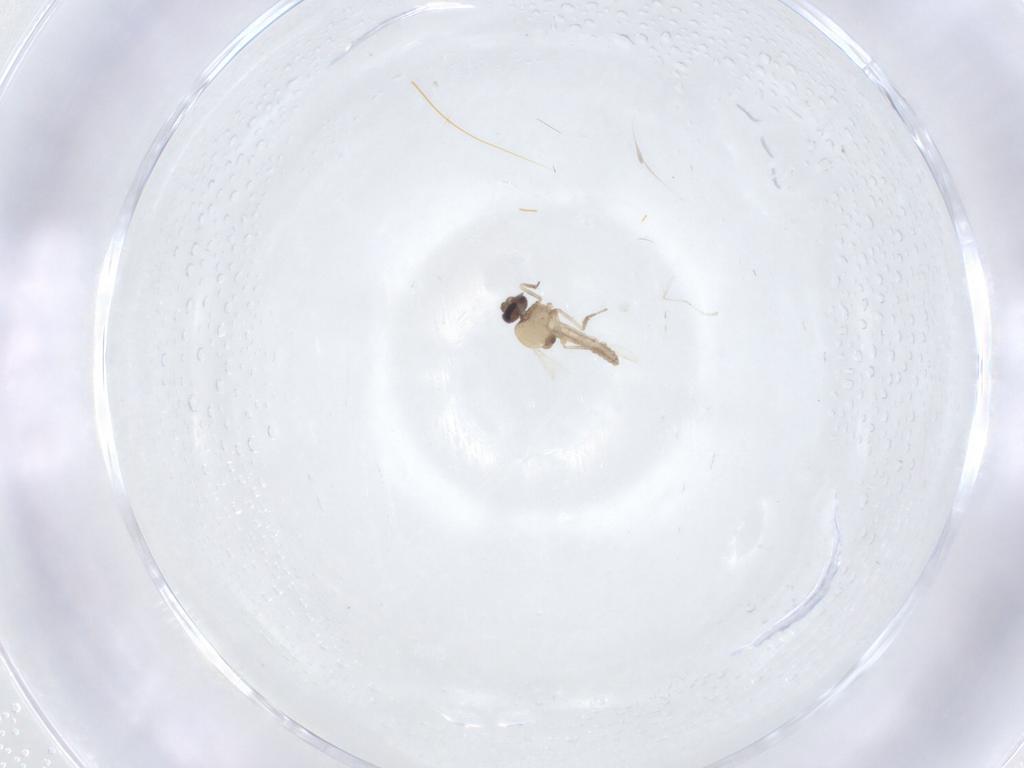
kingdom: Animalia
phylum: Arthropoda
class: Insecta
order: Diptera
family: Ceratopogonidae
